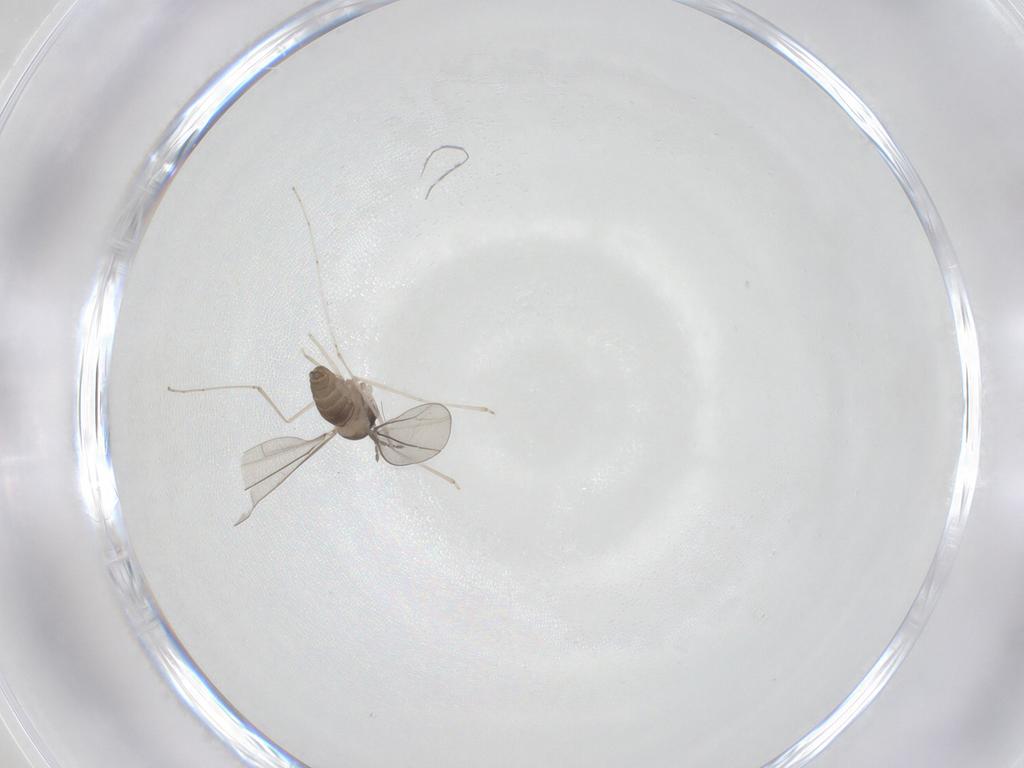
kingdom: Animalia
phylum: Arthropoda
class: Insecta
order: Diptera
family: Cecidomyiidae
